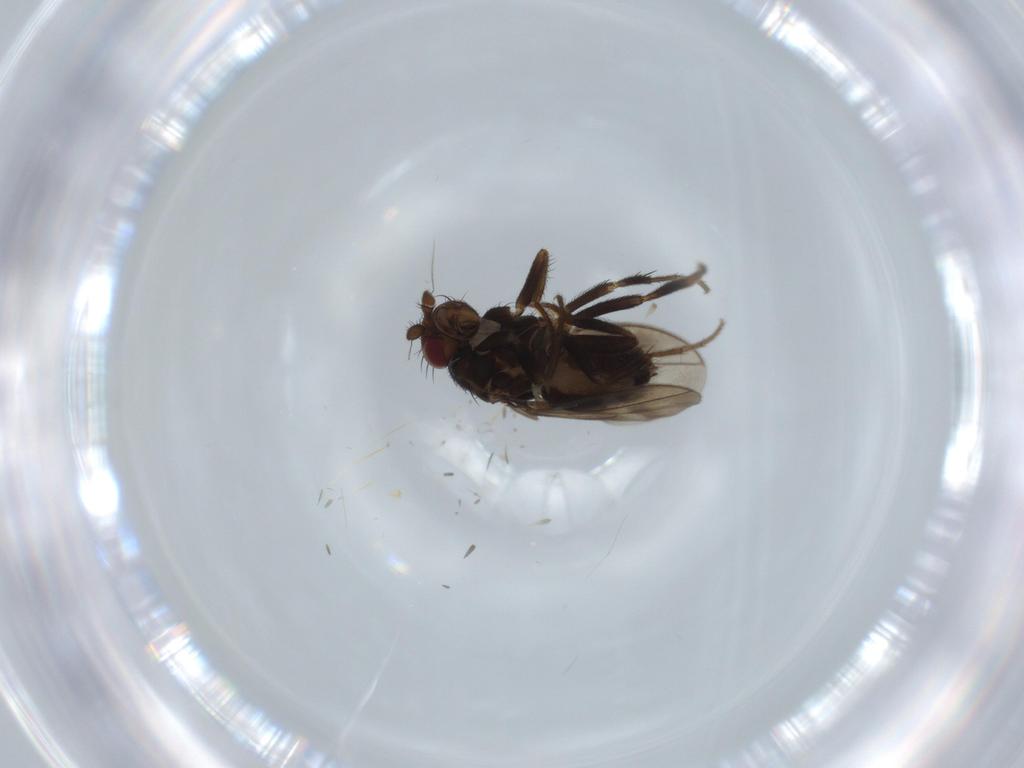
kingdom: Animalia
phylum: Arthropoda
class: Insecta
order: Diptera
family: Sphaeroceridae
